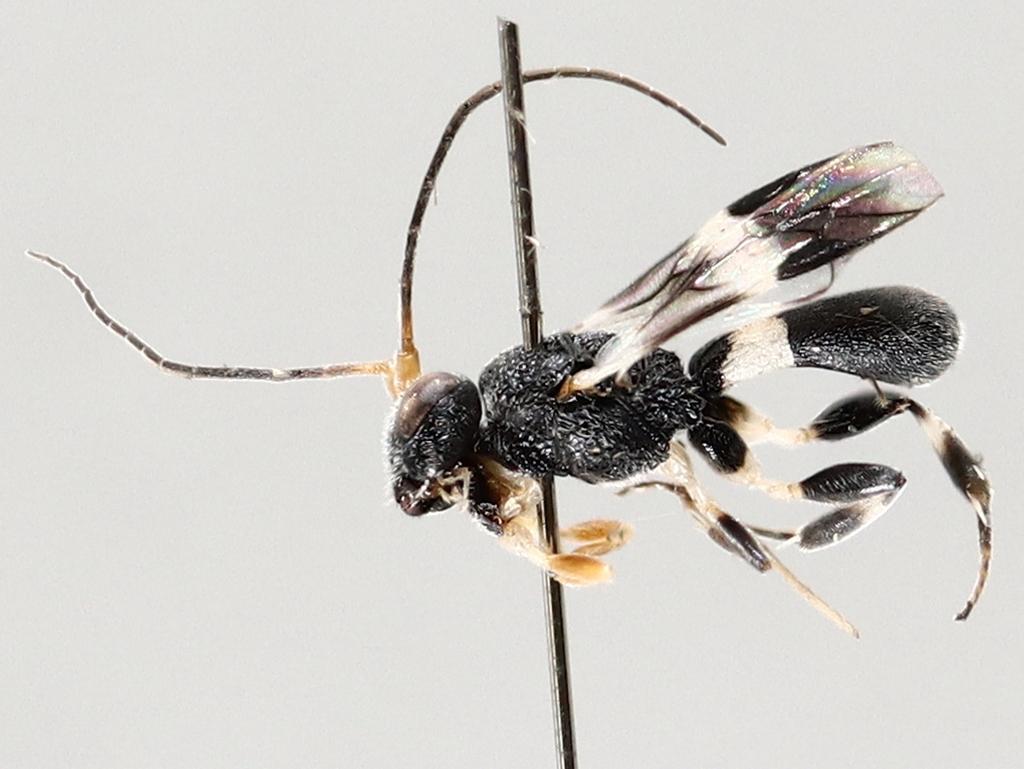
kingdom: Animalia
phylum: Arthropoda
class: Insecta
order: Diptera
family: Chironomidae
